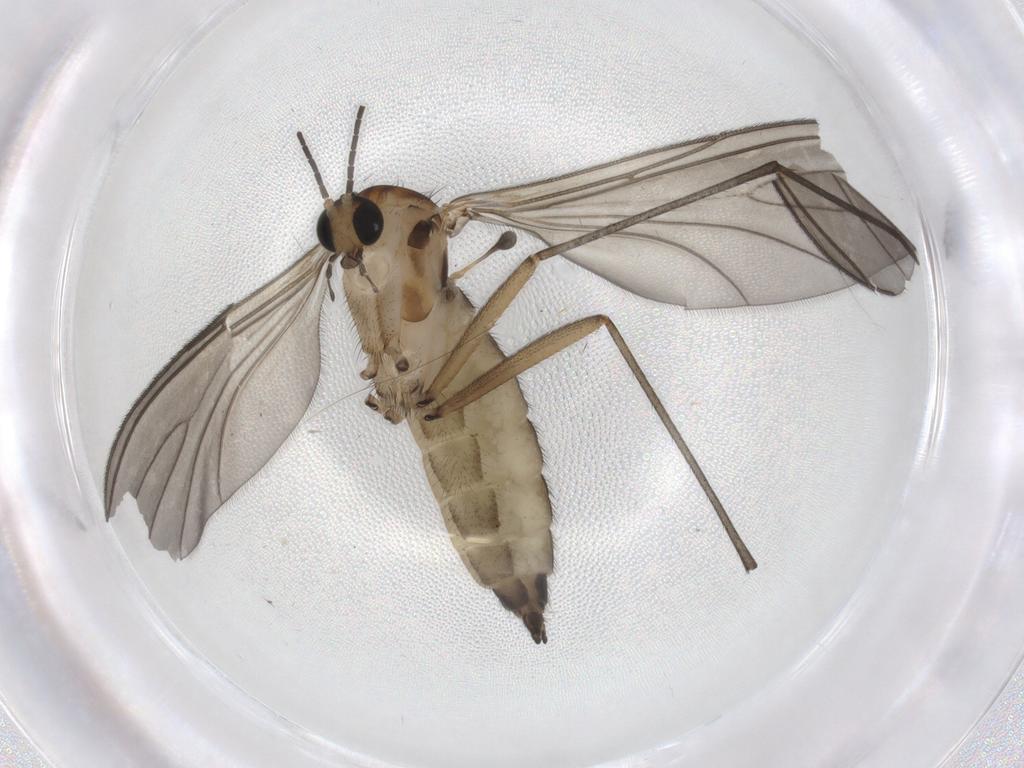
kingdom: Animalia
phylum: Arthropoda
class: Insecta
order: Diptera
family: Sciaridae
